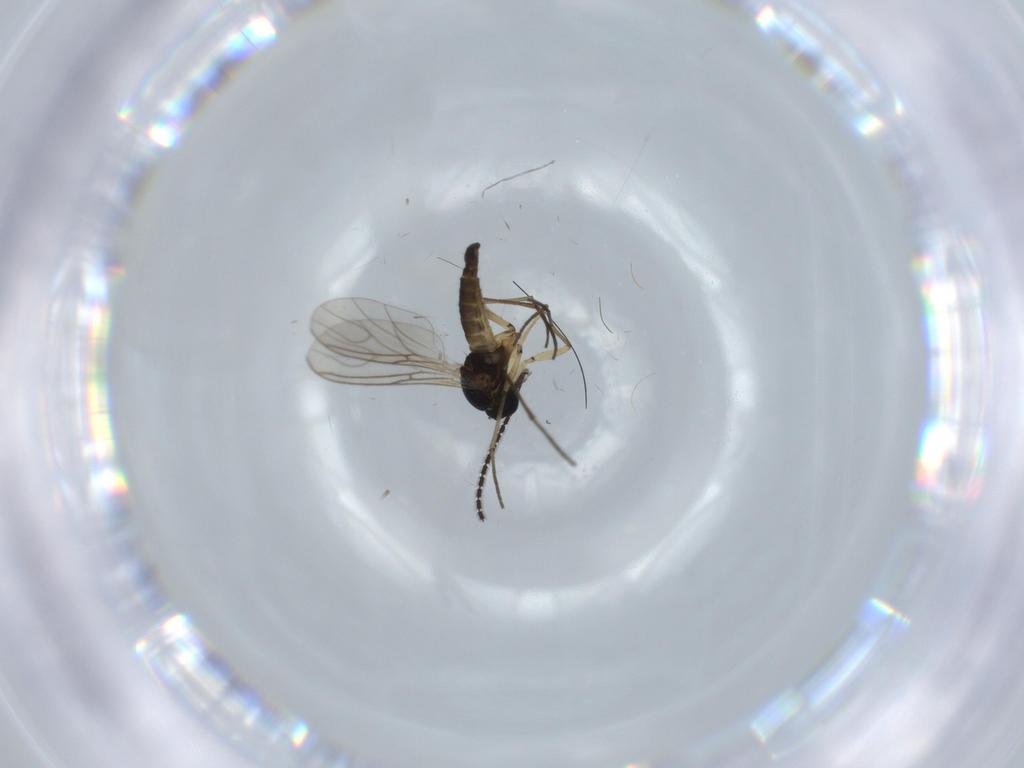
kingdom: Animalia
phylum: Arthropoda
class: Insecta
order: Diptera
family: Sciaridae
